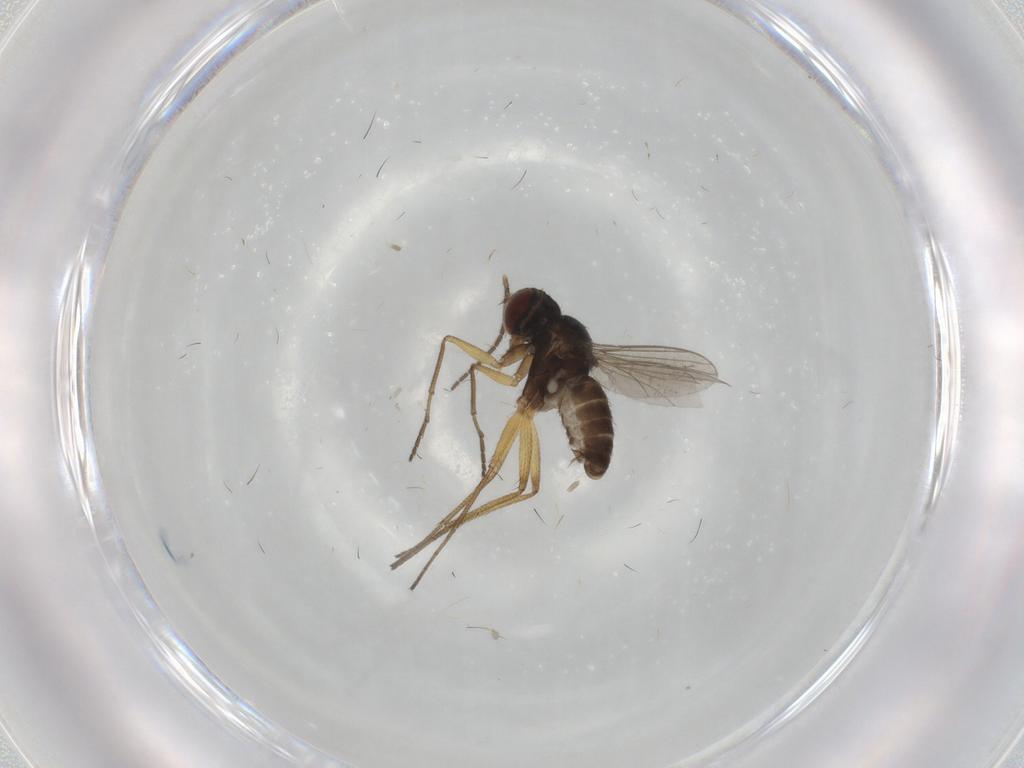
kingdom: Animalia
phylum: Arthropoda
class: Insecta
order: Diptera
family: Dolichopodidae
